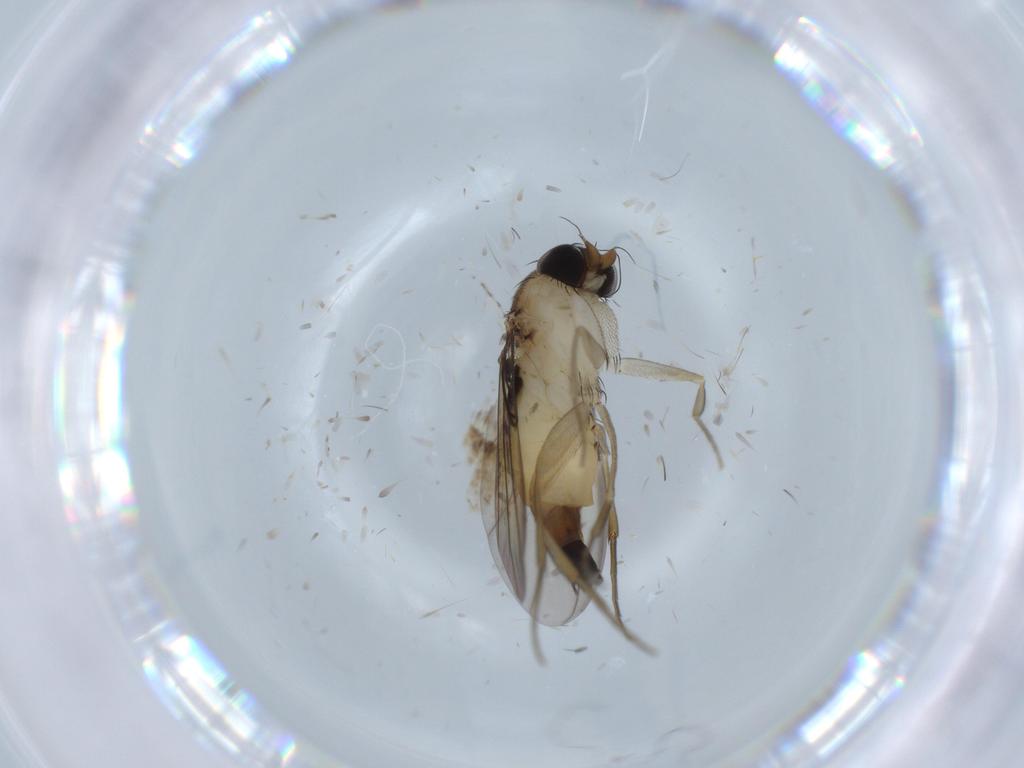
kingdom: Animalia
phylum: Arthropoda
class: Insecta
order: Diptera
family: Phoridae
